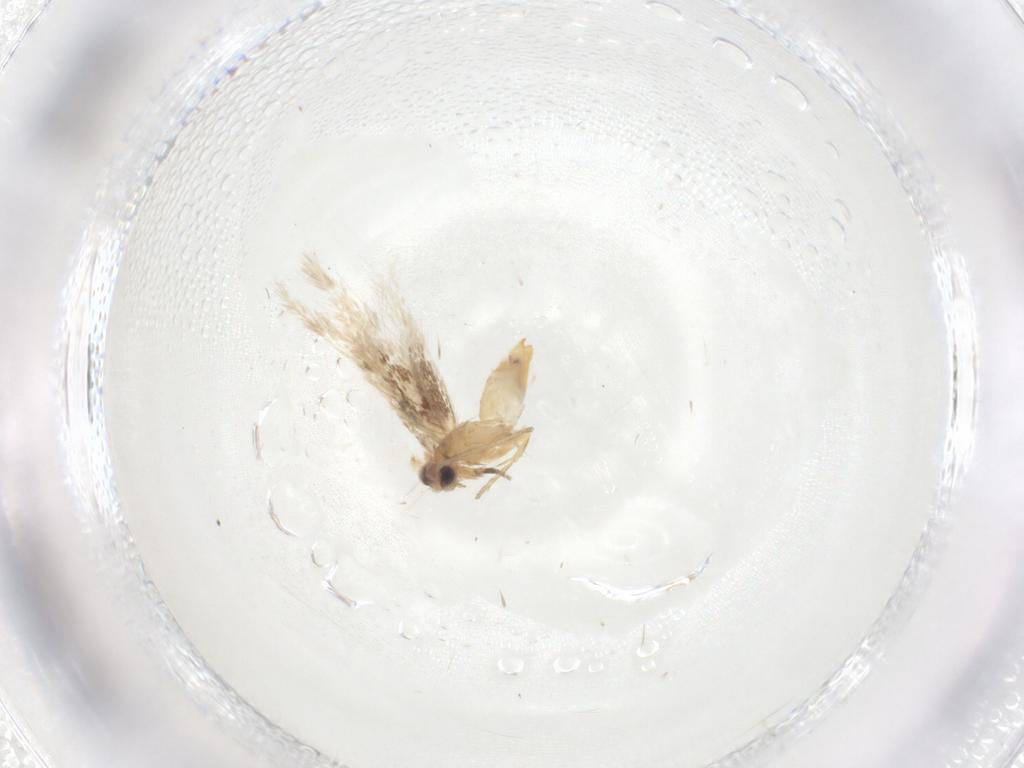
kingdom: Animalia
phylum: Arthropoda
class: Insecta
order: Lepidoptera
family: Nepticulidae
